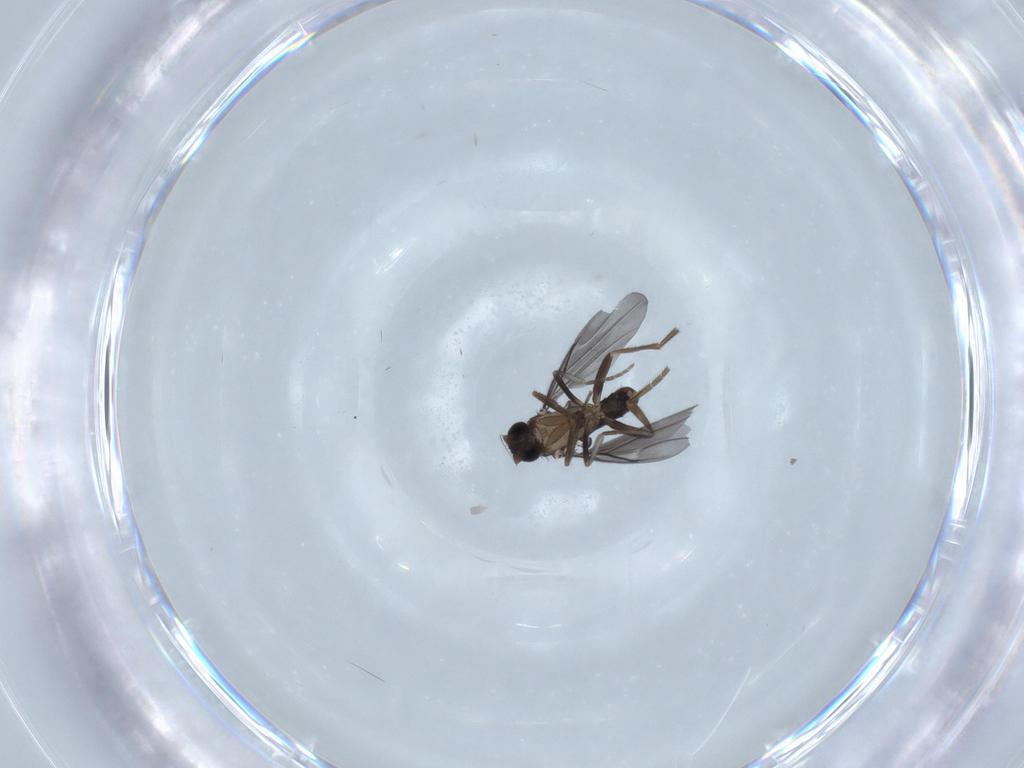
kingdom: Animalia
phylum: Arthropoda
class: Insecta
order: Diptera
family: Phoridae
